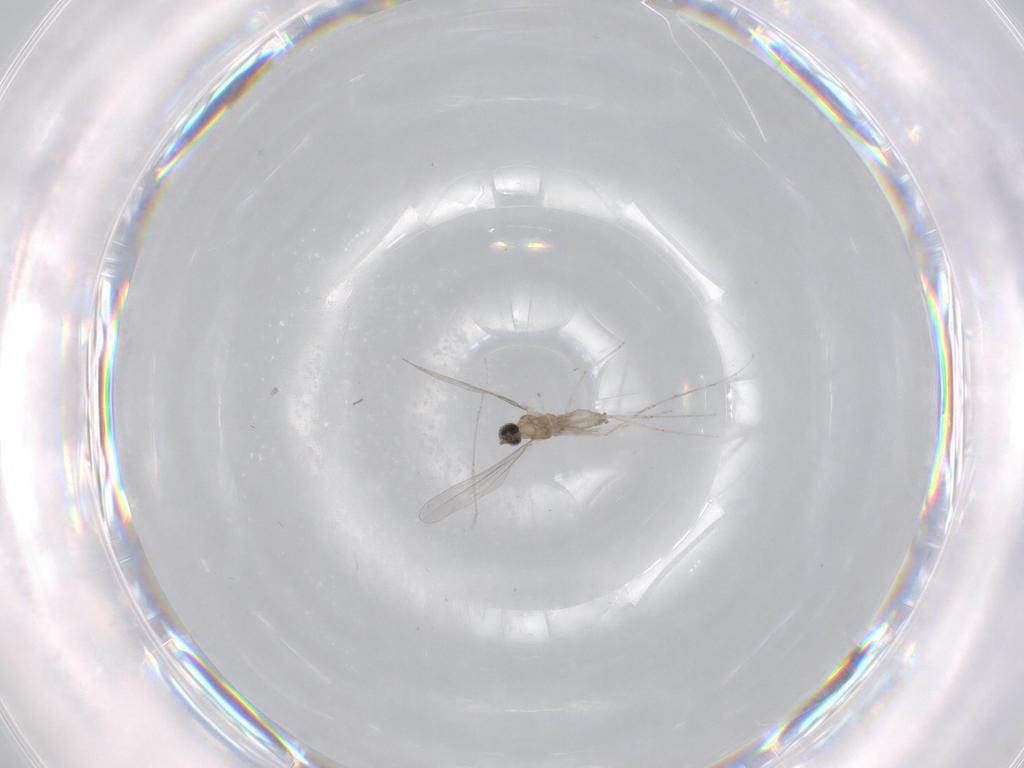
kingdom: Animalia
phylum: Arthropoda
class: Insecta
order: Diptera
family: Cecidomyiidae
